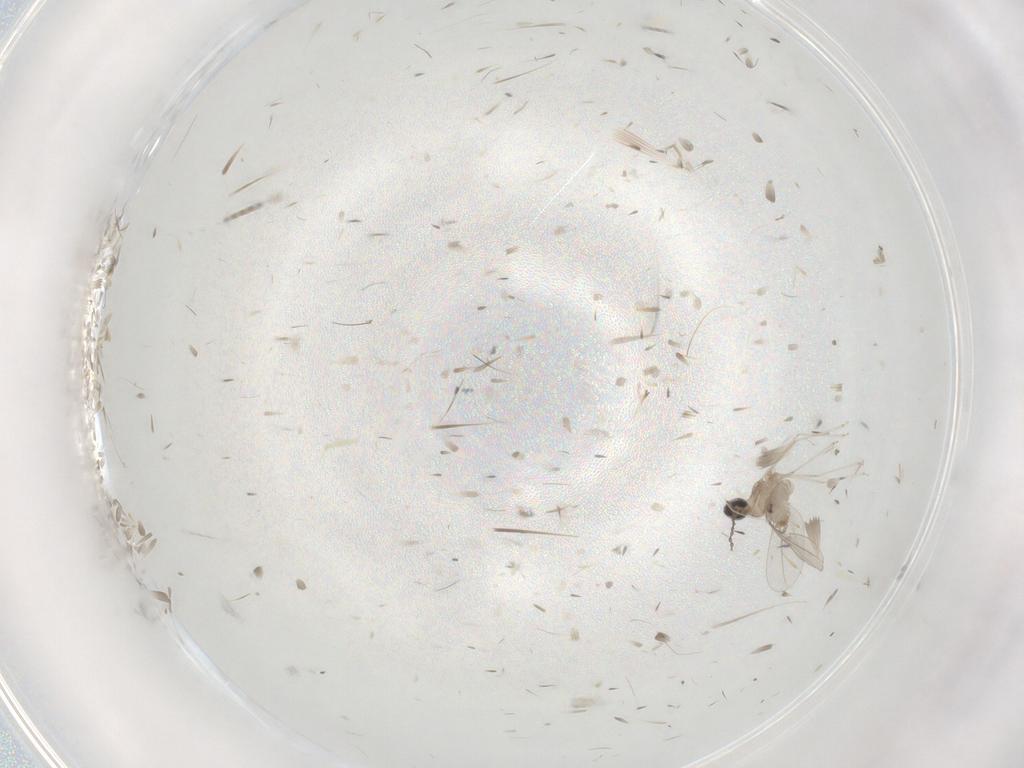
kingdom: Animalia
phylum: Arthropoda
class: Insecta
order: Diptera
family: Cecidomyiidae
